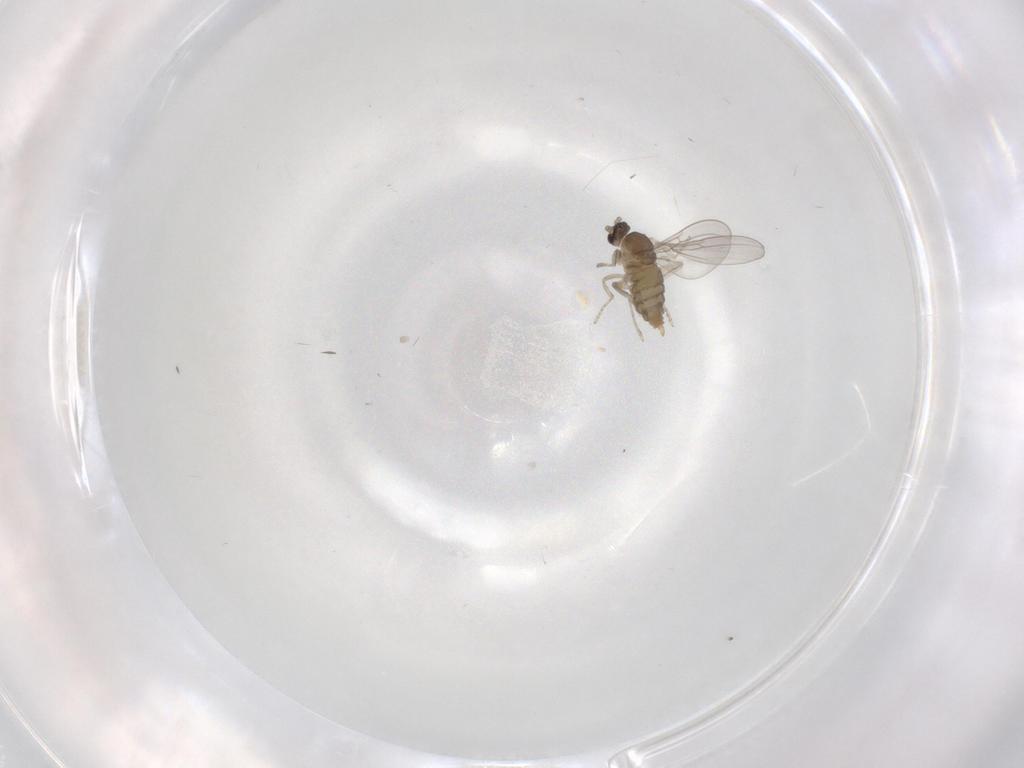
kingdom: Animalia
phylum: Arthropoda
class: Insecta
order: Diptera
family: Cecidomyiidae
